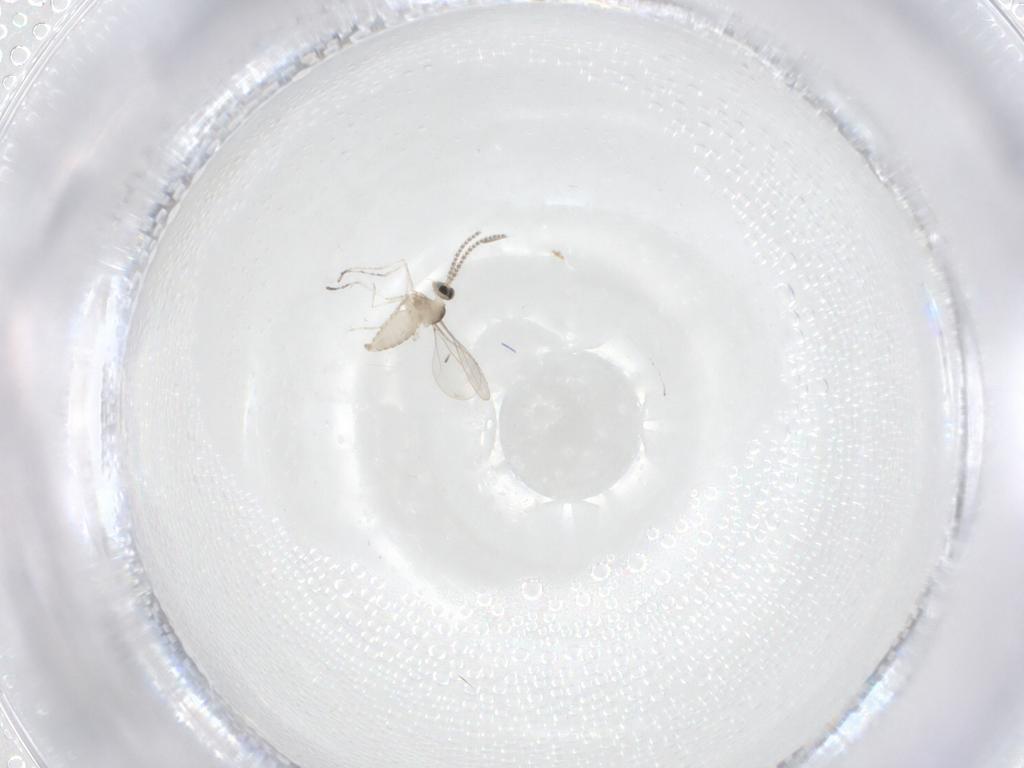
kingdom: Animalia
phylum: Arthropoda
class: Insecta
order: Diptera
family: Cecidomyiidae
